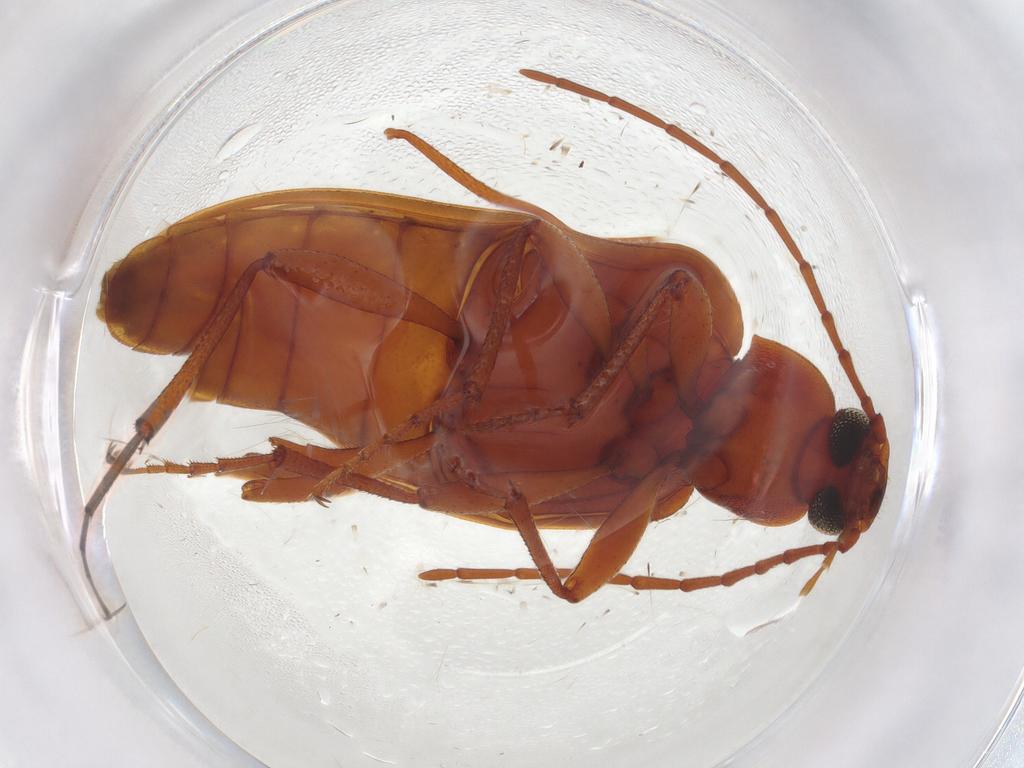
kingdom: Animalia
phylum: Arthropoda
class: Insecta
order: Coleoptera
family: Tenebrionidae
